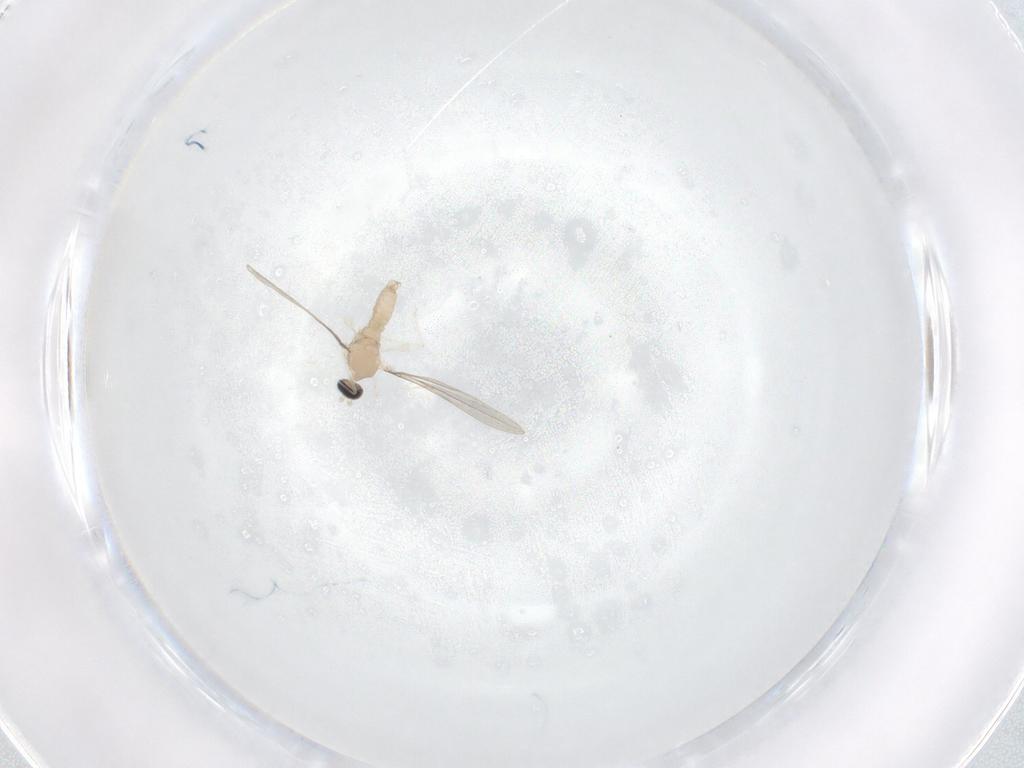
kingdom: Animalia
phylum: Arthropoda
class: Insecta
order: Diptera
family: Cecidomyiidae
